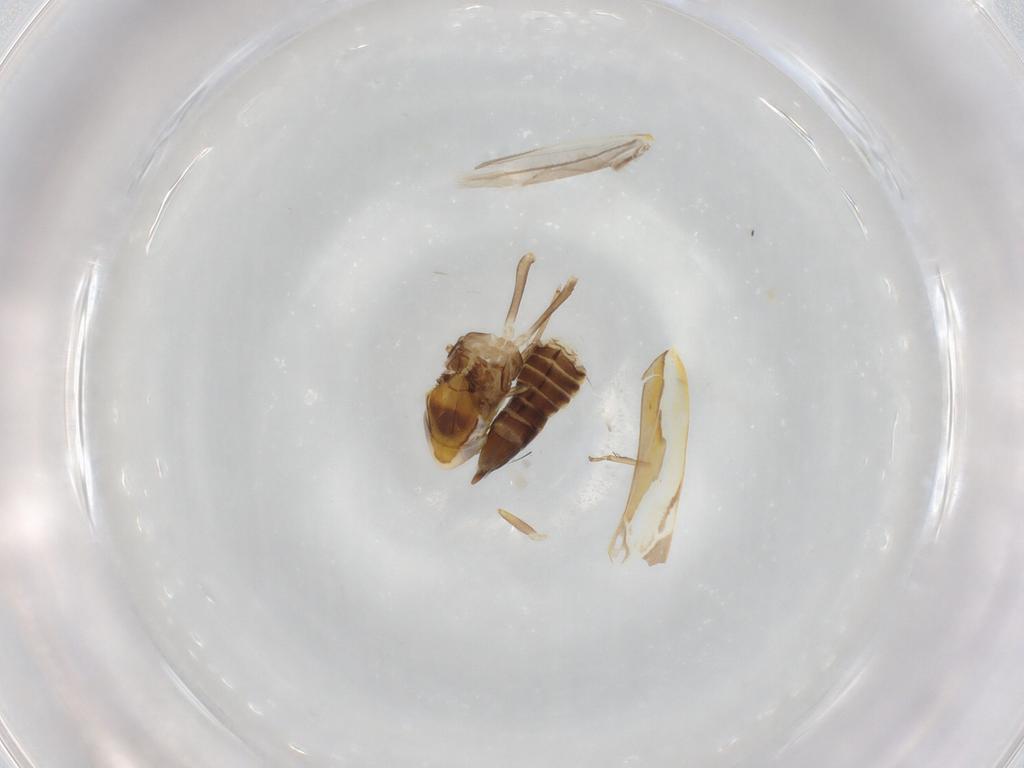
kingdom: Animalia
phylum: Arthropoda
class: Insecta
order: Hemiptera
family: Cicadellidae
